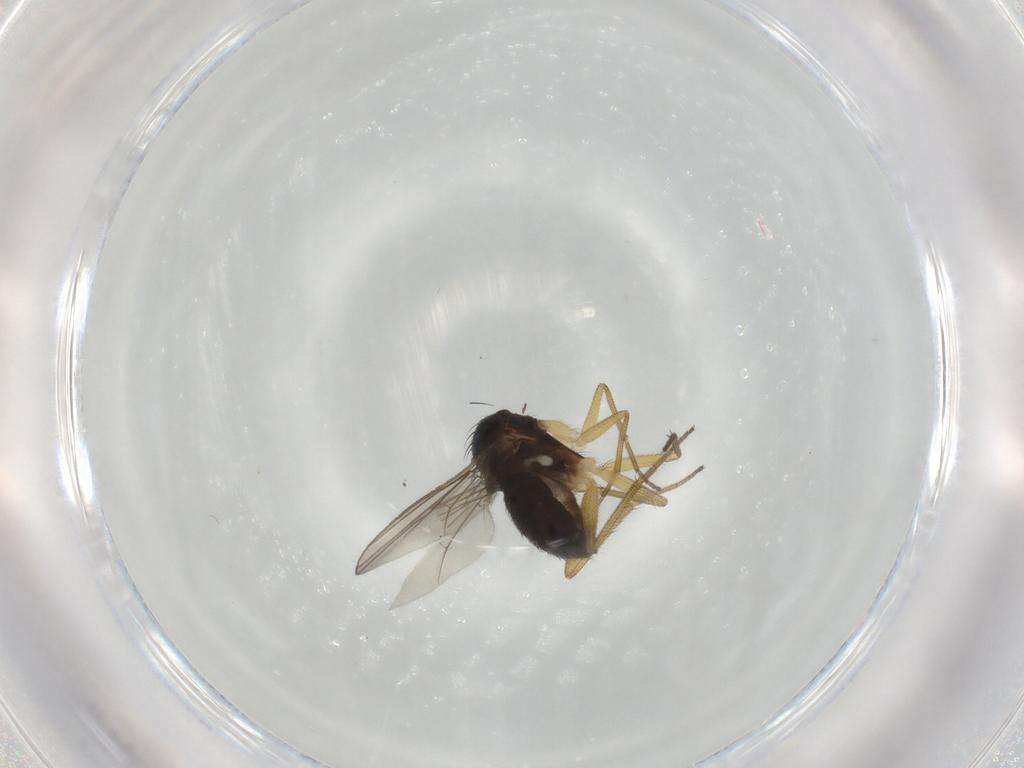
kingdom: Animalia
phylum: Arthropoda
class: Insecta
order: Diptera
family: Dolichopodidae
